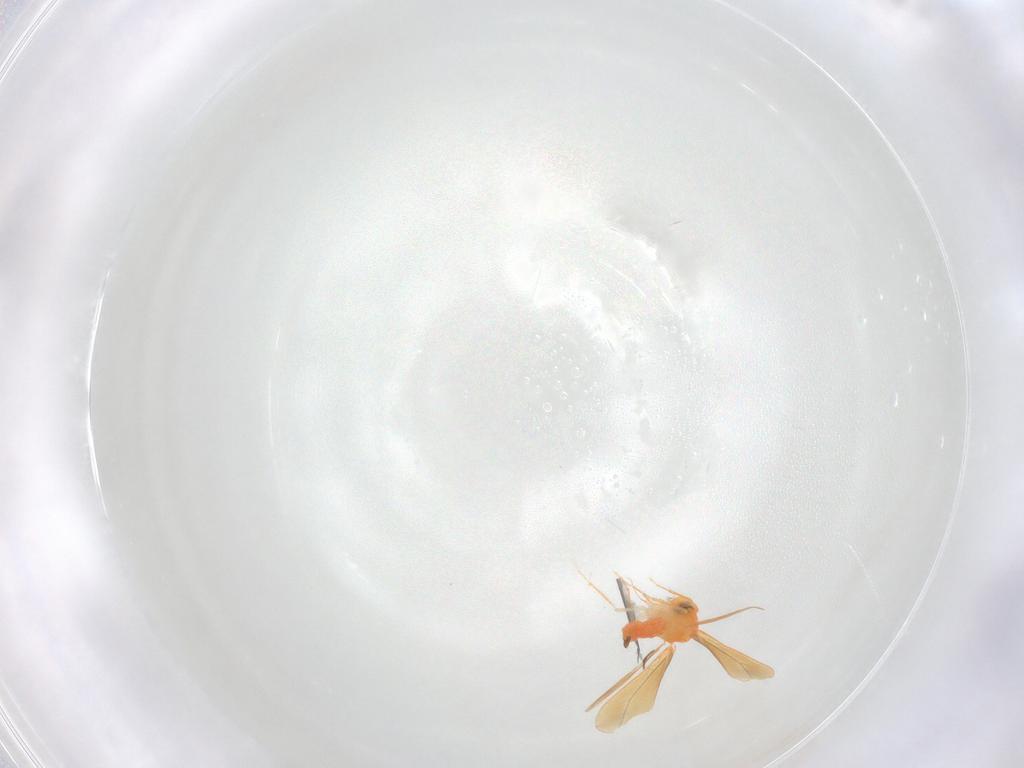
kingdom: Animalia
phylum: Arthropoda
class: Insecta
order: Hemiptera
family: Aleyrodidae
